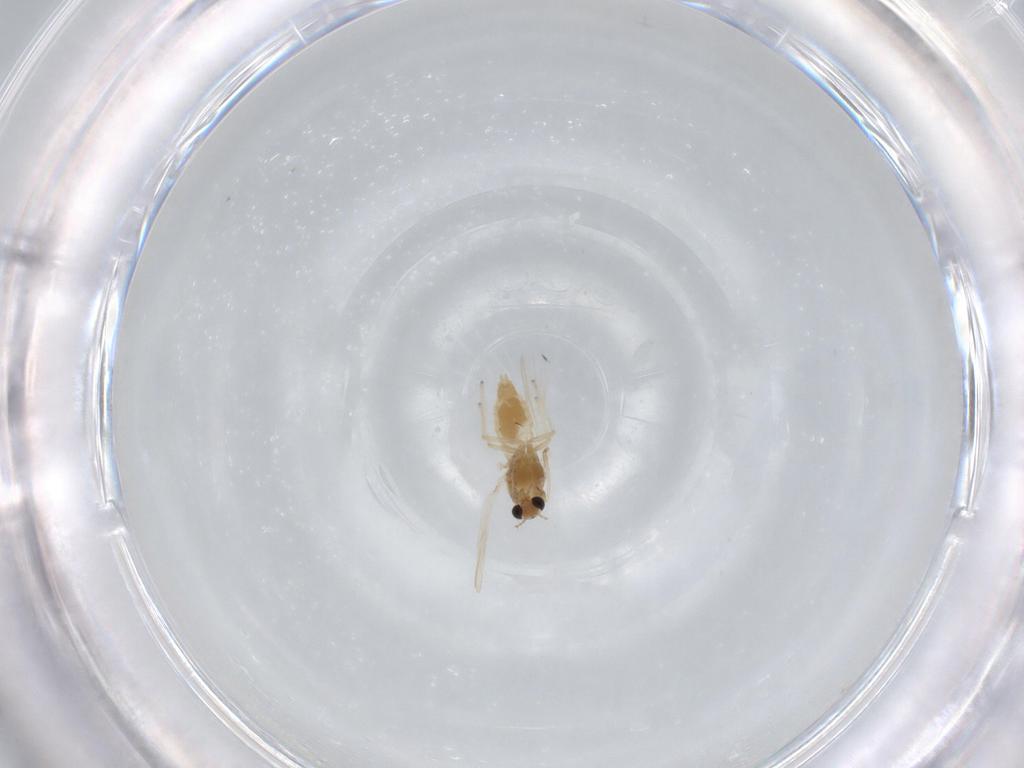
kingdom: Animalia
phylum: Arthropoda
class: Insecta
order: Diptera
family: Chironomidae
